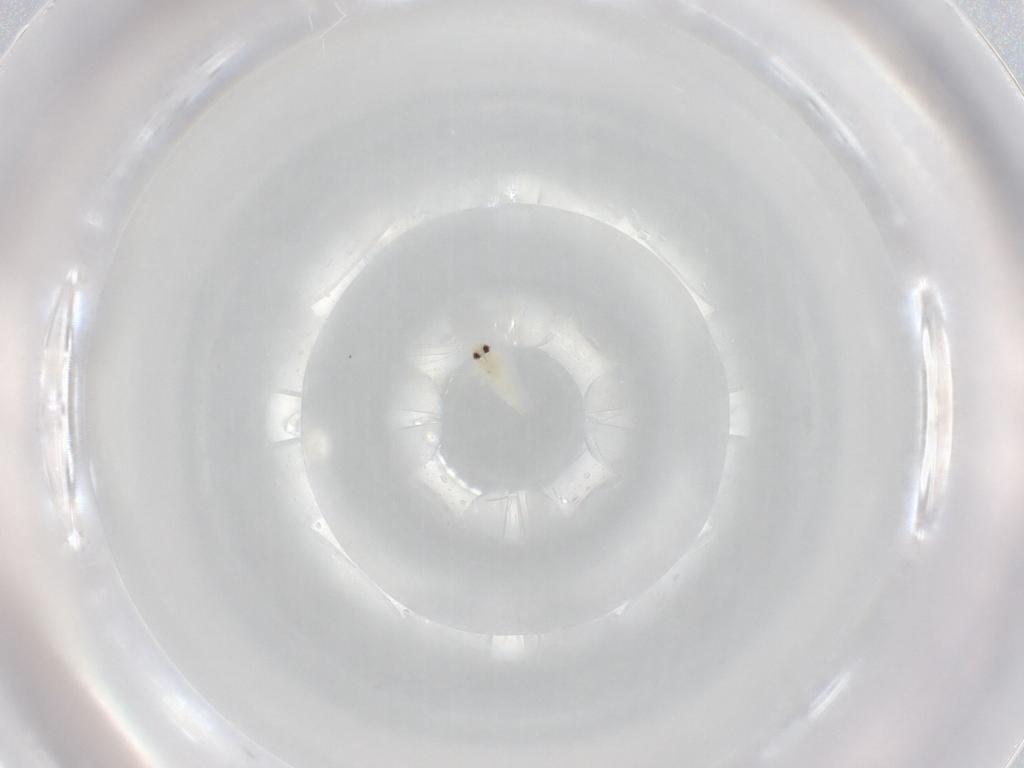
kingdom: Animalia
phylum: Arthropoda
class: Insecta
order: Hemiptera
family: Aleyrodidae
